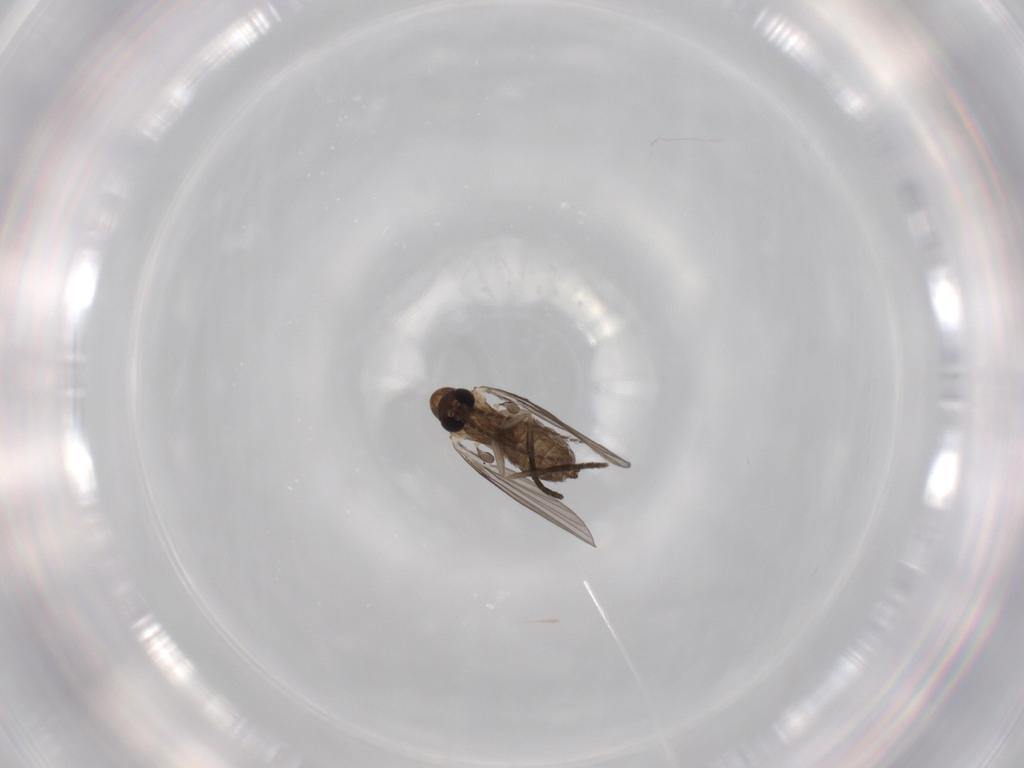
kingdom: Animalia
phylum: Arthropoda
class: Insecta
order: Diptera
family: Psychodidae
